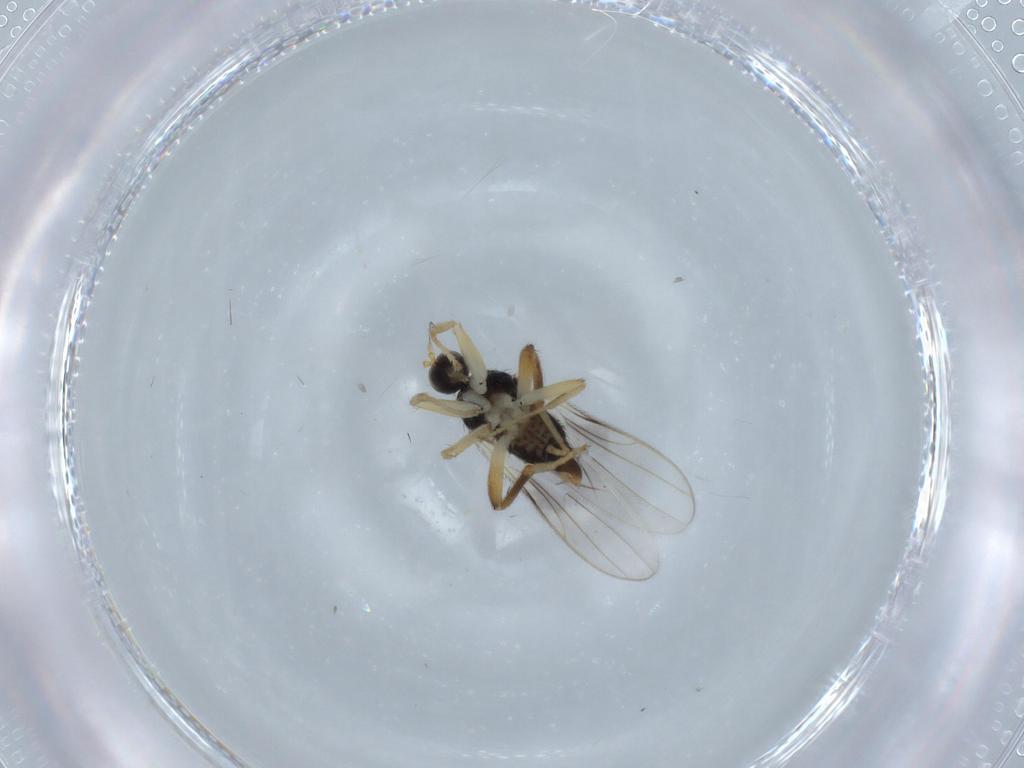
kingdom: Animalia
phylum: Arthropoda
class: Insecta
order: Diptera
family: Hybotidae
